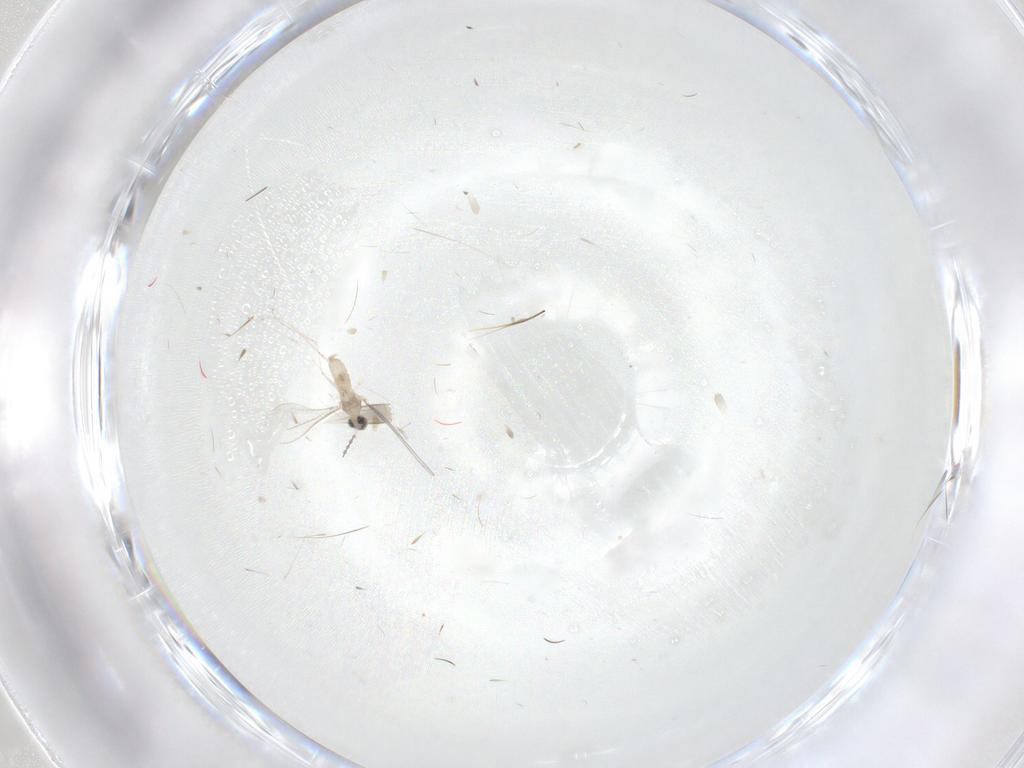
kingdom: Animalia
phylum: Arthropoda
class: Insecta
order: Diptera
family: Cecidomyiidae
